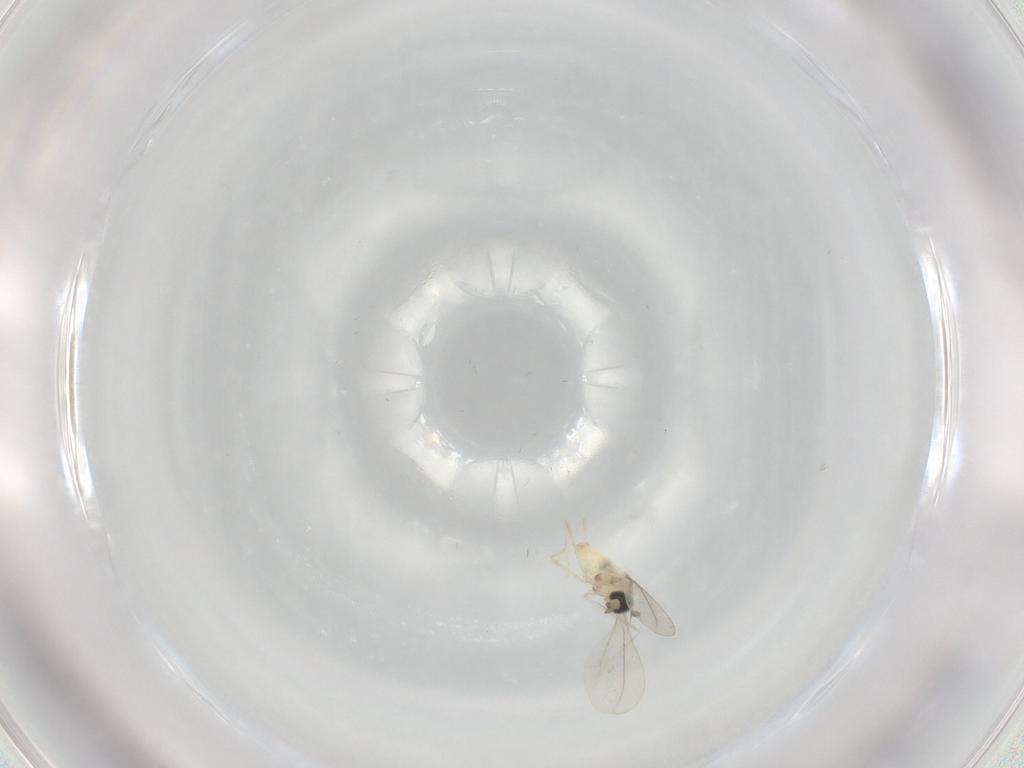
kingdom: Animalia
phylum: Arthropoda
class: Insecta
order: Diptera
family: Cecidomyiidae
